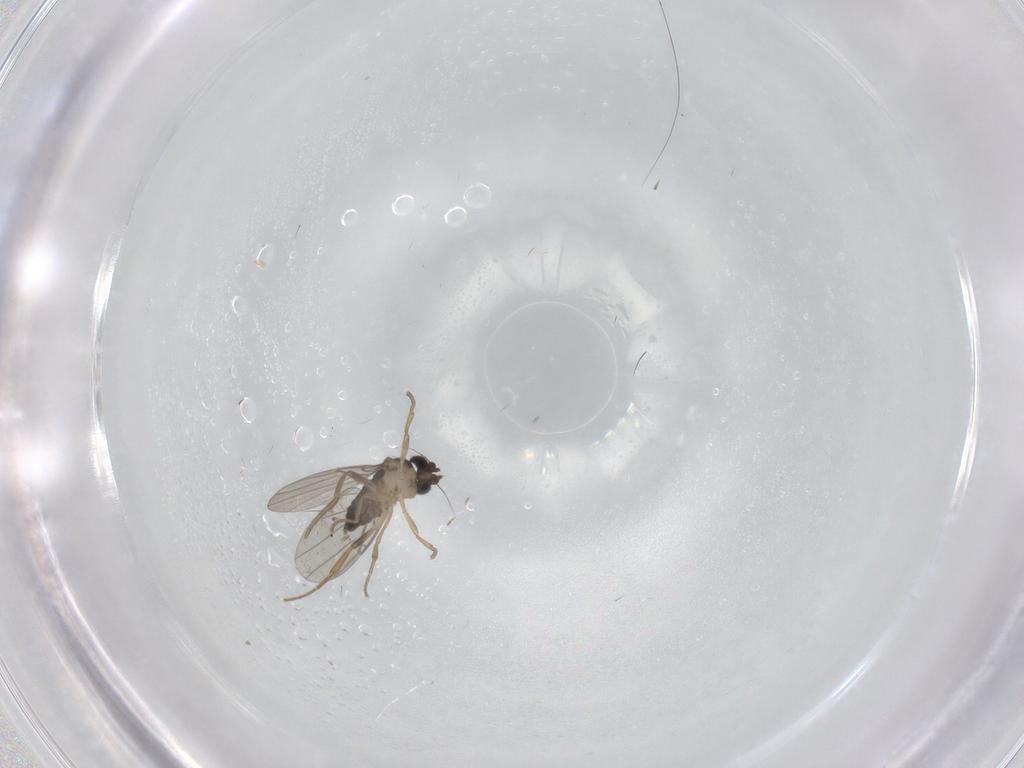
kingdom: Animalia
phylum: Arthropoda
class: Insecta
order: Diptera
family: Phoridae
